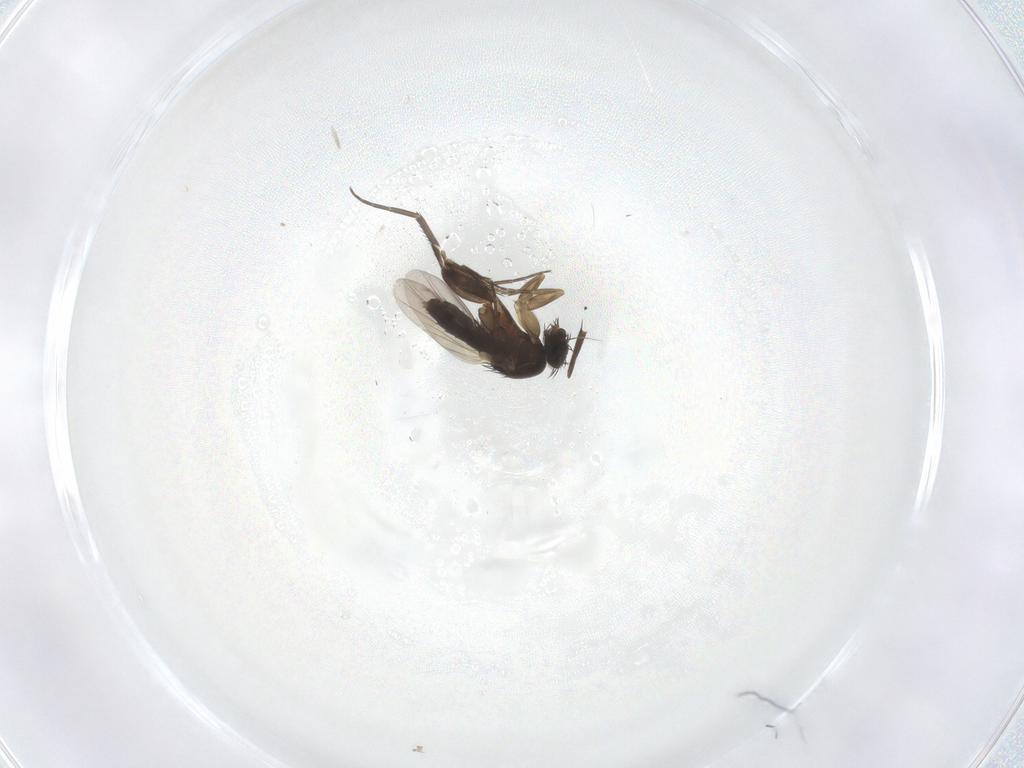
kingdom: Animalia
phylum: Arthropoda
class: Insecta
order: Diptera
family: Phoridae
